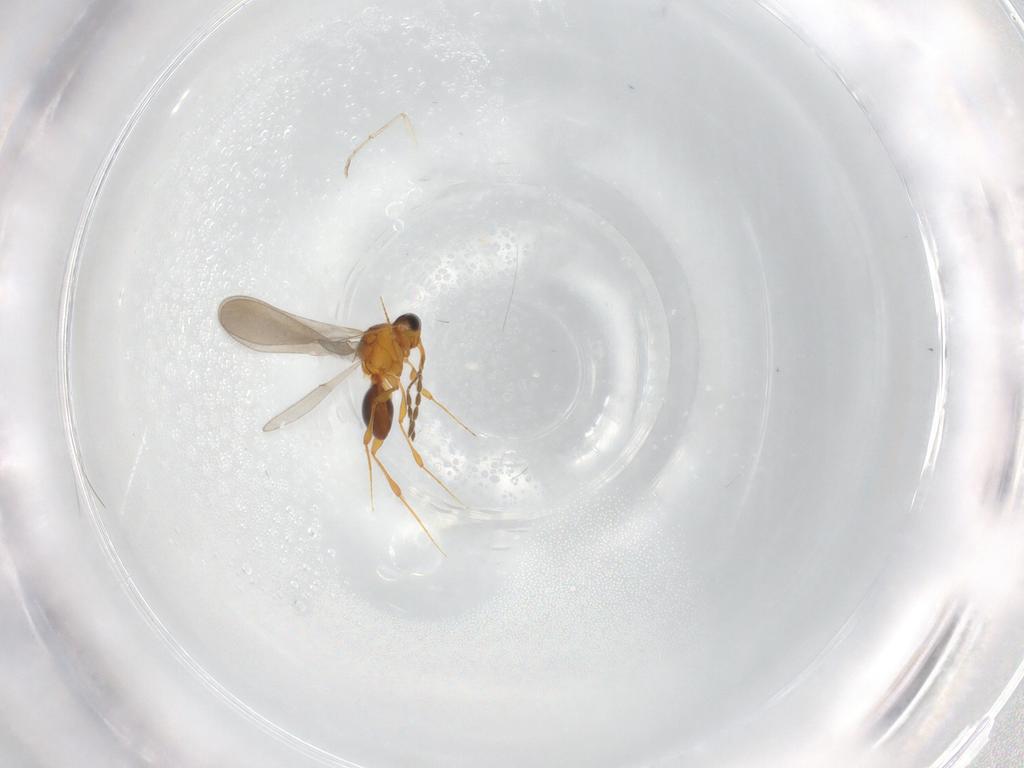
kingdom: Animalia
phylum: Arthropoda
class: Insecta
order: Hymenoptera
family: Platygastridae
